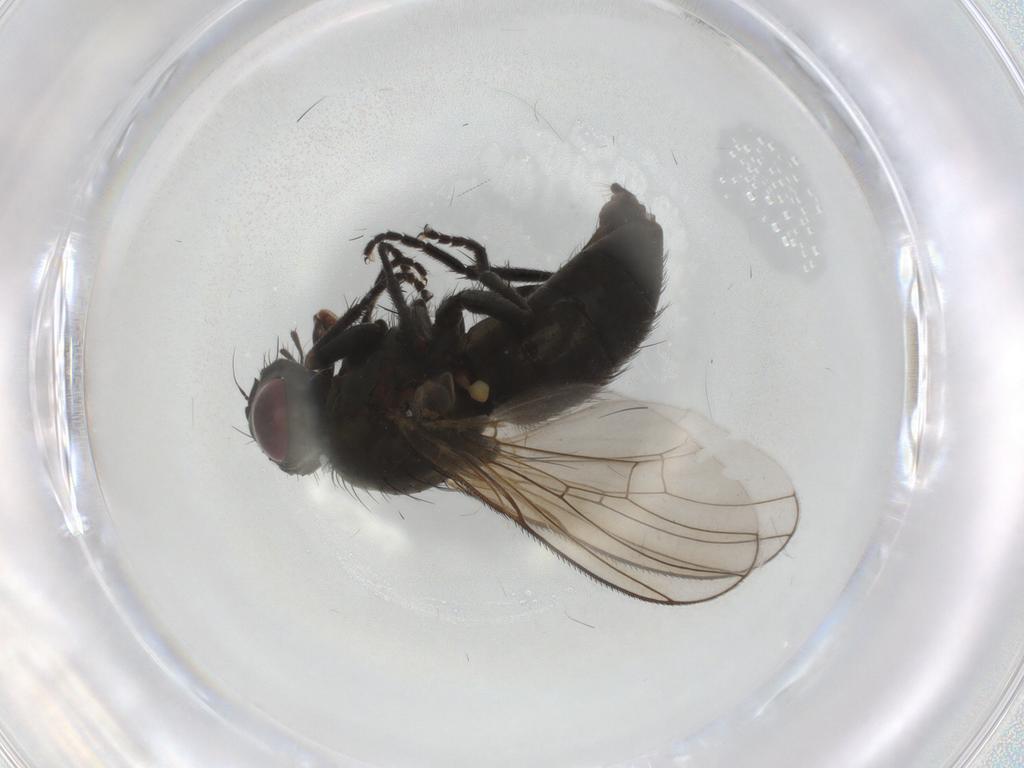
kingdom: Animalia
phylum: Arthropoda
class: Insecta
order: Diptera
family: Muscidae
